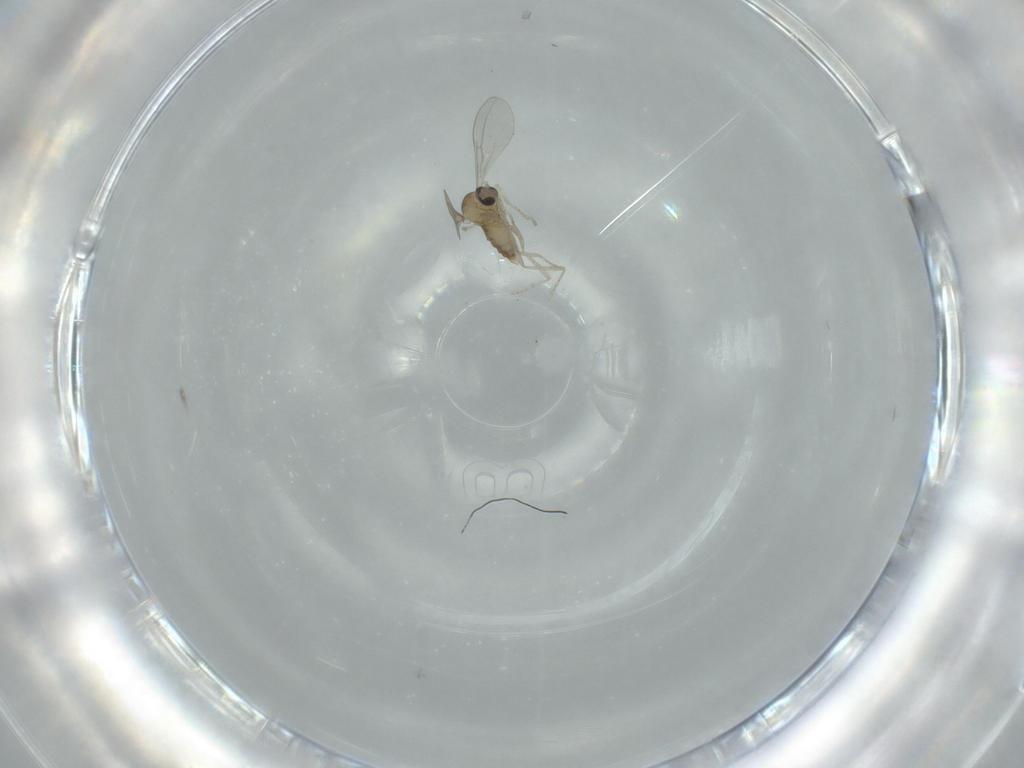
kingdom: Animalia
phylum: Arthropoda
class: Insecta
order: Diptera
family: Cecidomyiidae
